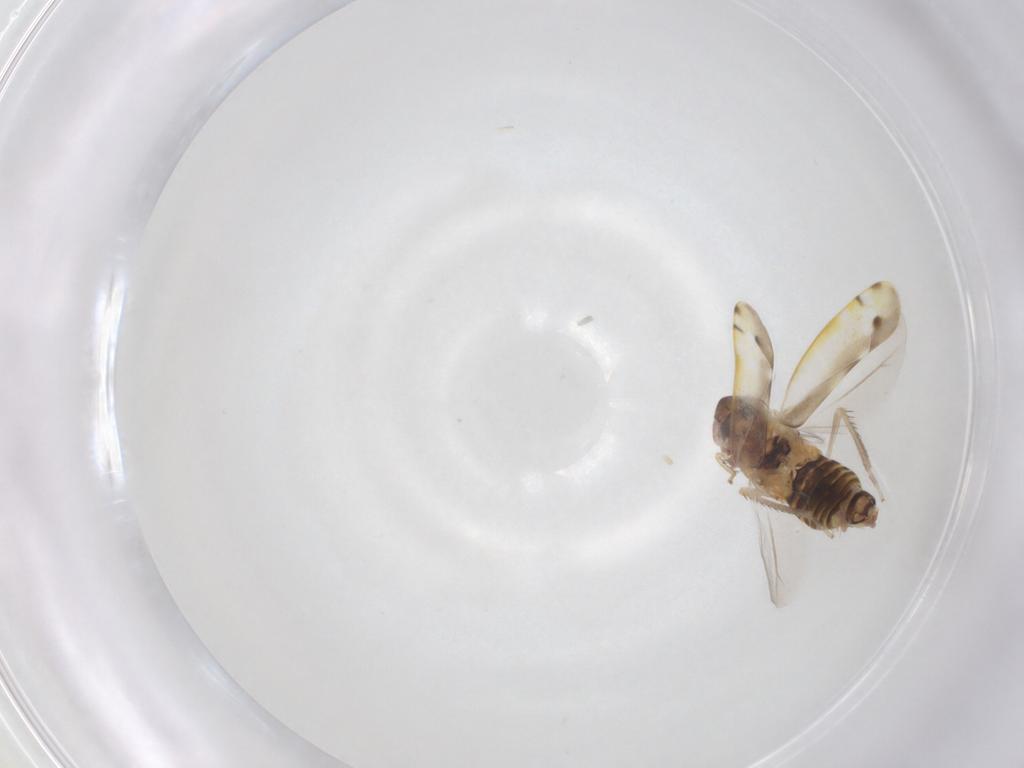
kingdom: Animalia
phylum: Arthropoda
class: Insecta
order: Hemiptera
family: Cicadellidae
